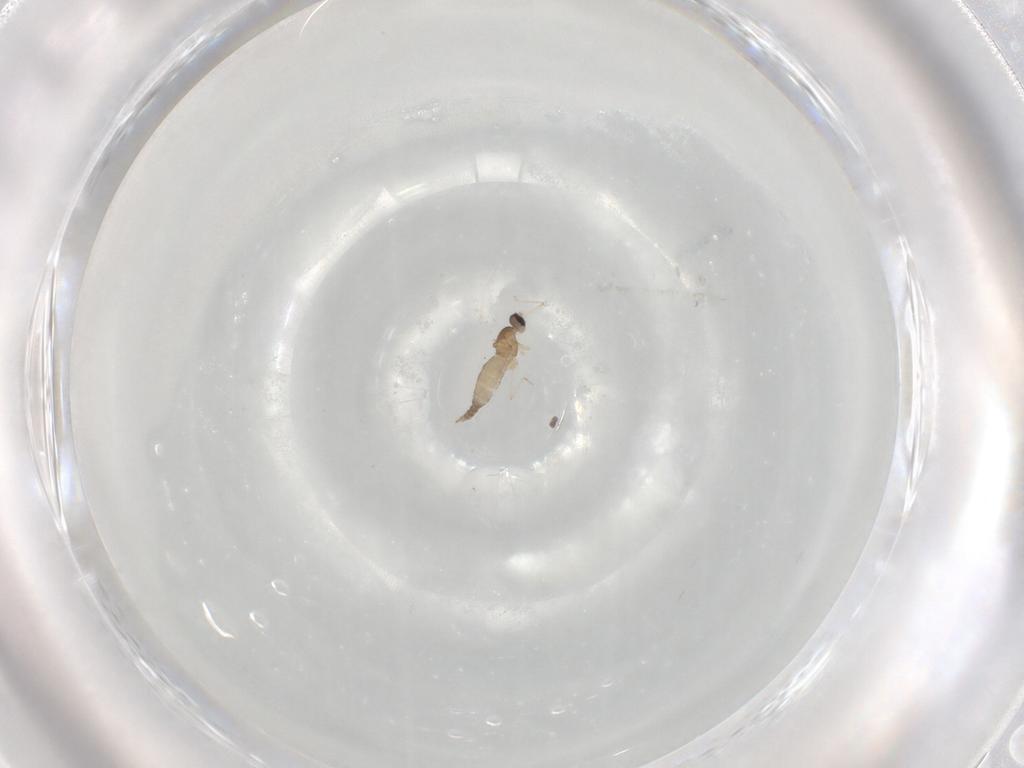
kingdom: Animalia
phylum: Arthropoda
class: Insecta
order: Diptera
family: Cecidomyiidae
